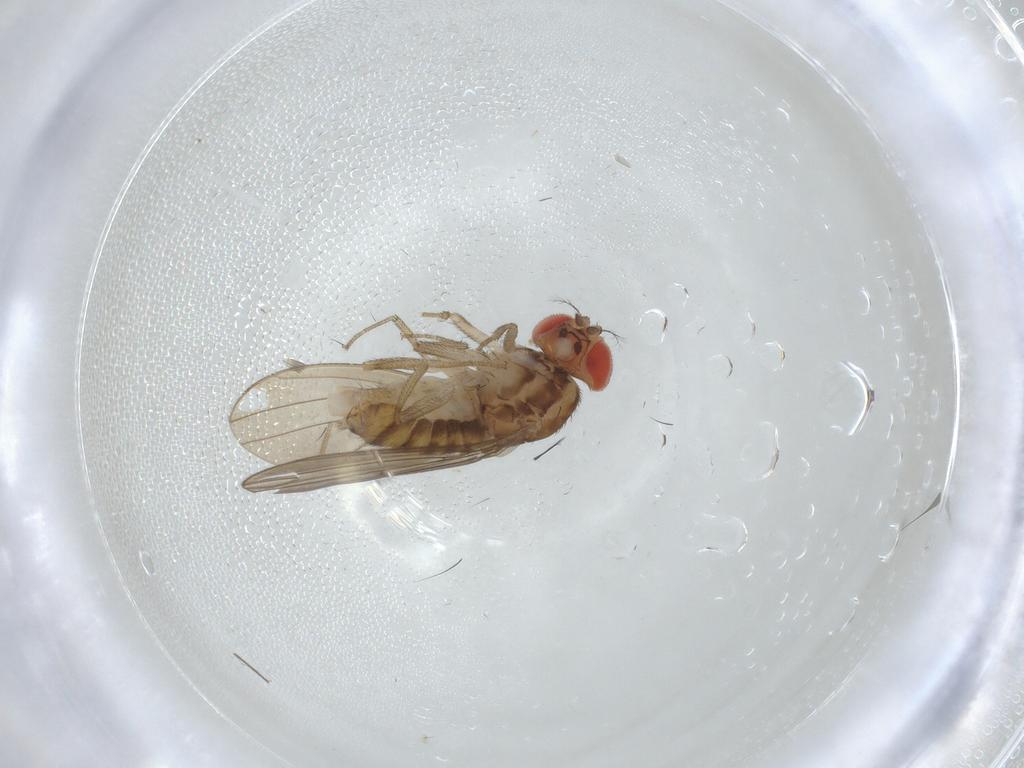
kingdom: Animalia
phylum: Arthropoda
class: Insecta
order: Diptera
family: Drosophilidae
